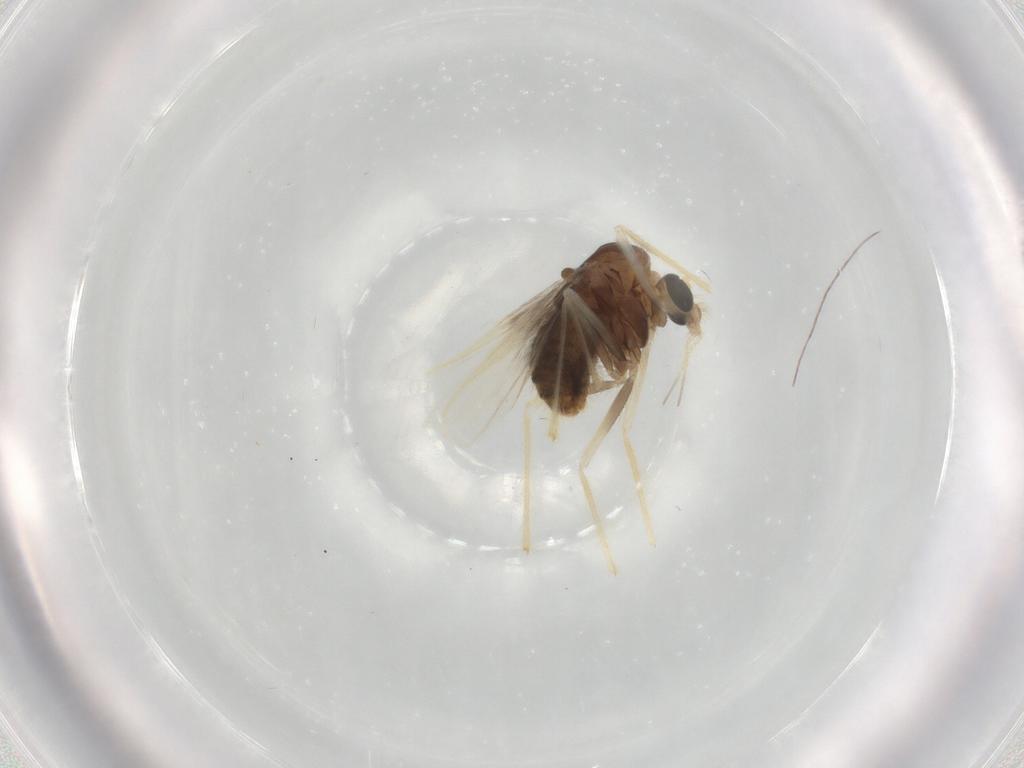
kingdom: Animalia
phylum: Arthropoda
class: Insecta
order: Diptera
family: Chironomidae
